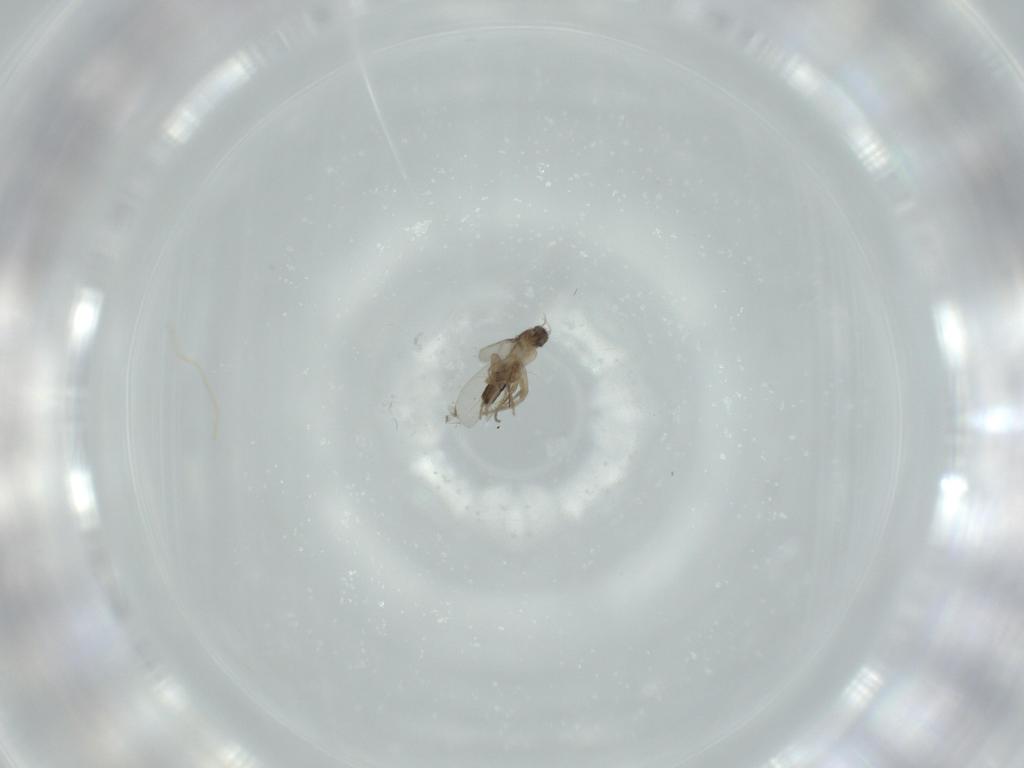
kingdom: Animalia
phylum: Arthropoda
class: Insecta
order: Diptera
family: Phoridae
